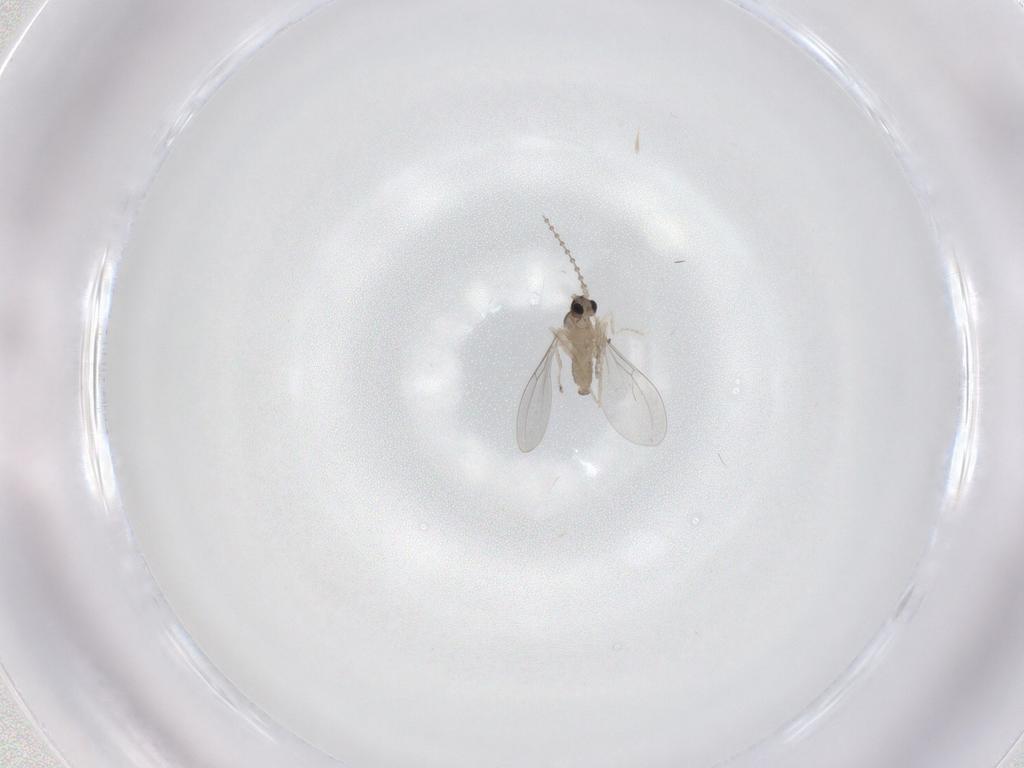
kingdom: Animalia
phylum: Arthropoda
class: Insecta
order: Diptera
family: Cecidomyiidae
